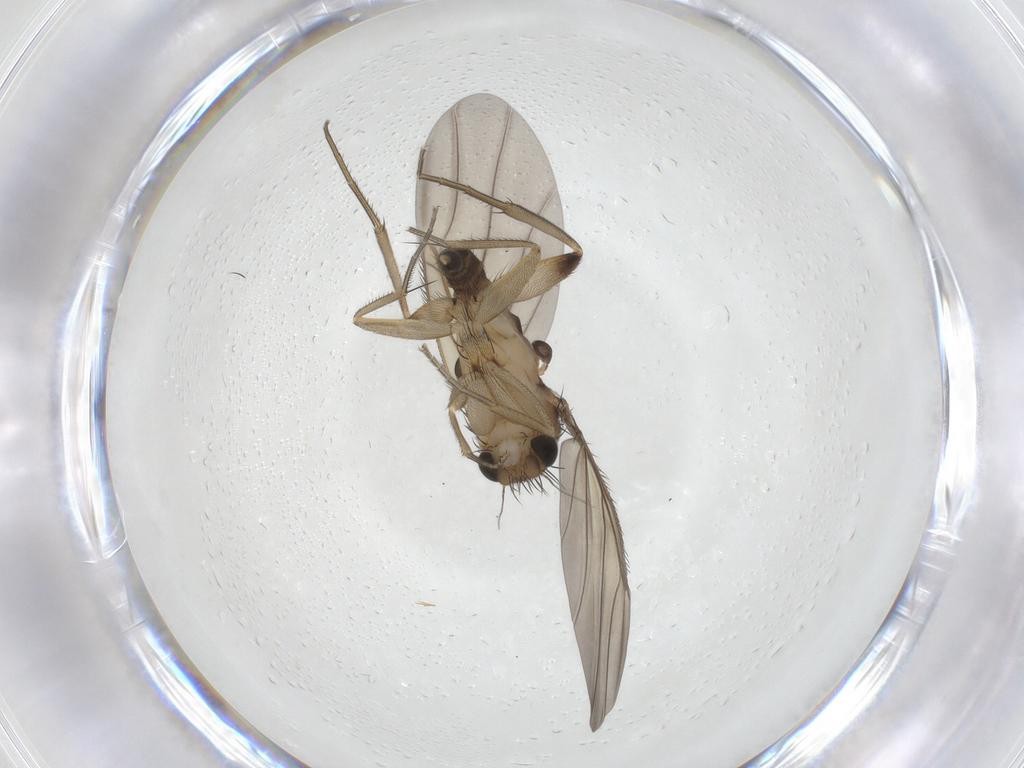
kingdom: Animalia
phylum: Arthropoda
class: Insecta
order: Diptera
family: Phoridae
